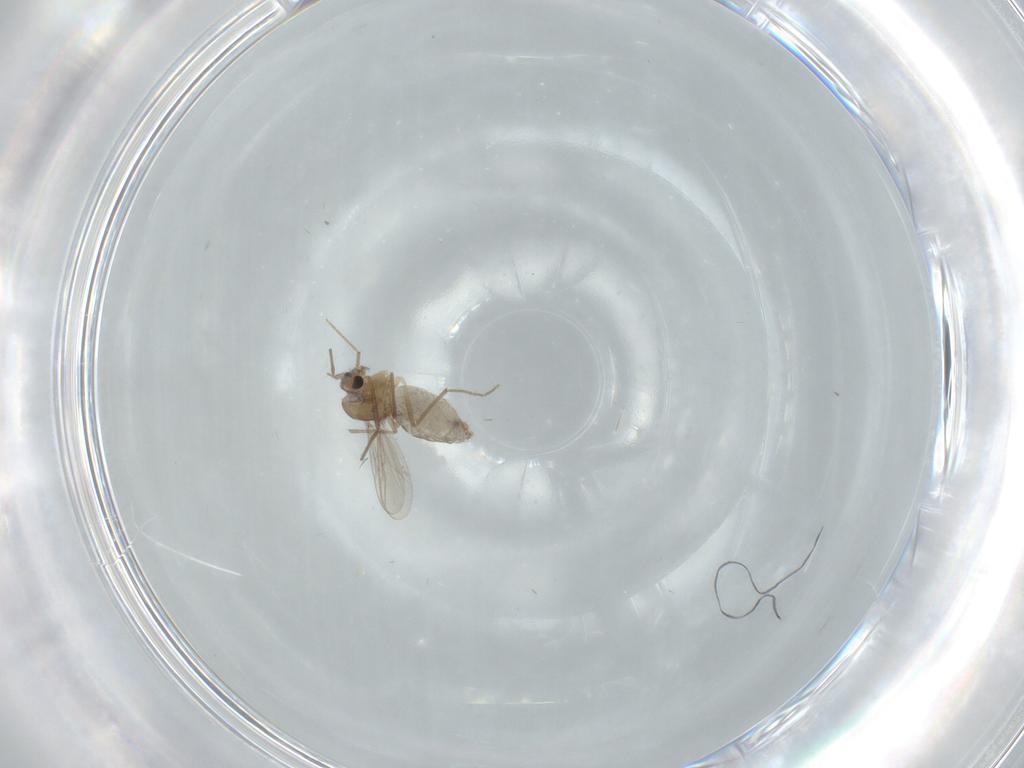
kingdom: Animalia
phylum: Arthropoda
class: Insecta
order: Diptera
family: Chironomidae
